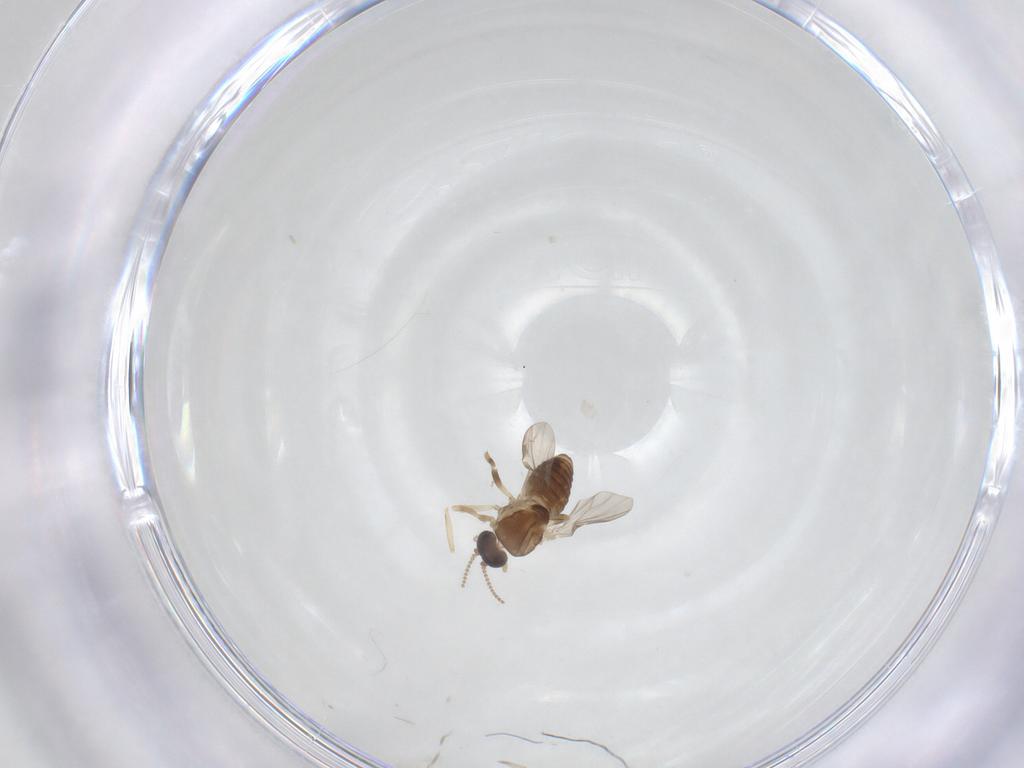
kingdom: Animalia
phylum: Arthropoda
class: Insecta
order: Diptera
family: Ceratopogonidae
